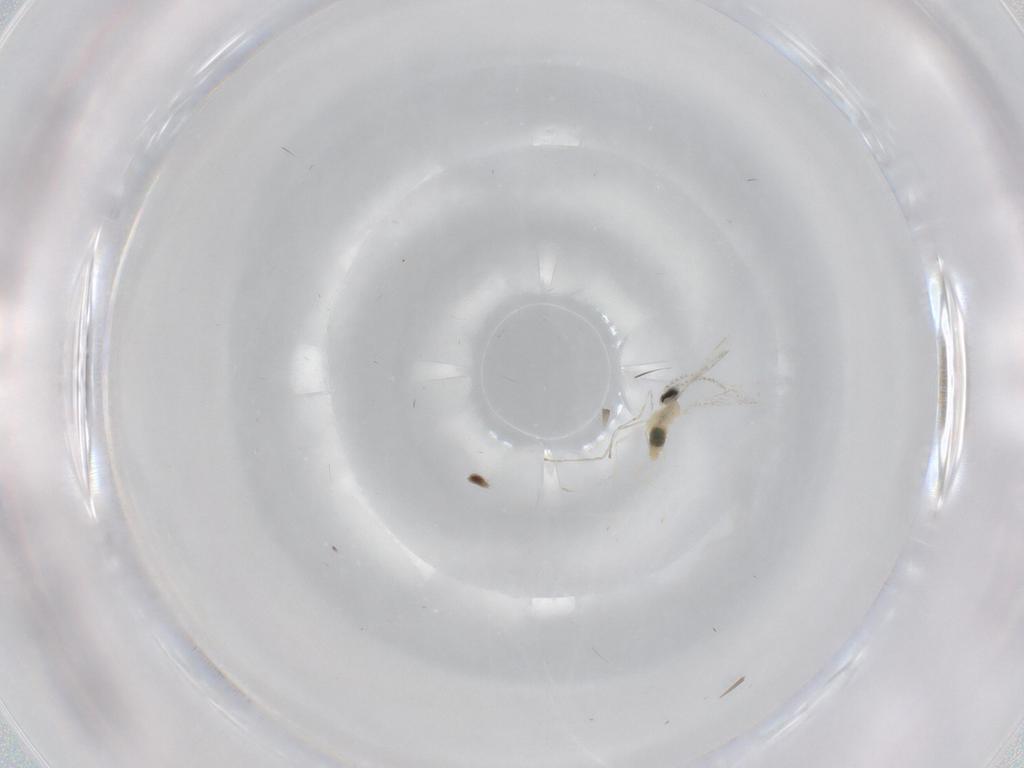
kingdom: Animalia
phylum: Arthropoda
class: Insecta
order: Diptera
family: Cecidomyiidae
